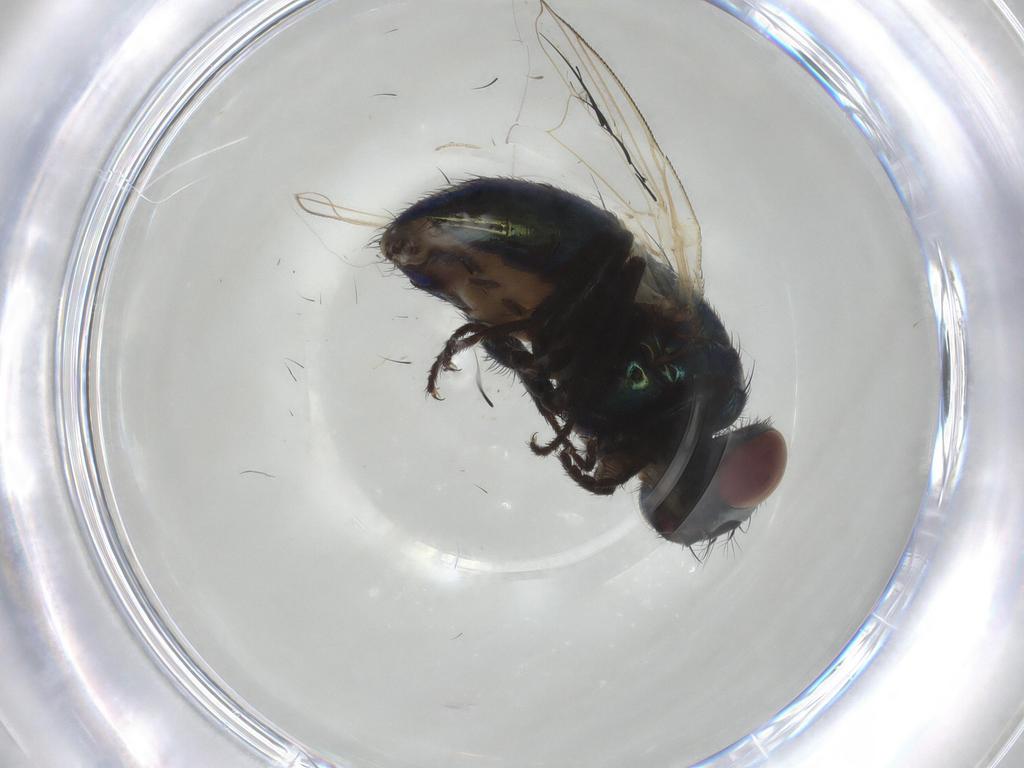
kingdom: Animalia
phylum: Arthropoda
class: Insecta
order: Diptera
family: Muscidae
